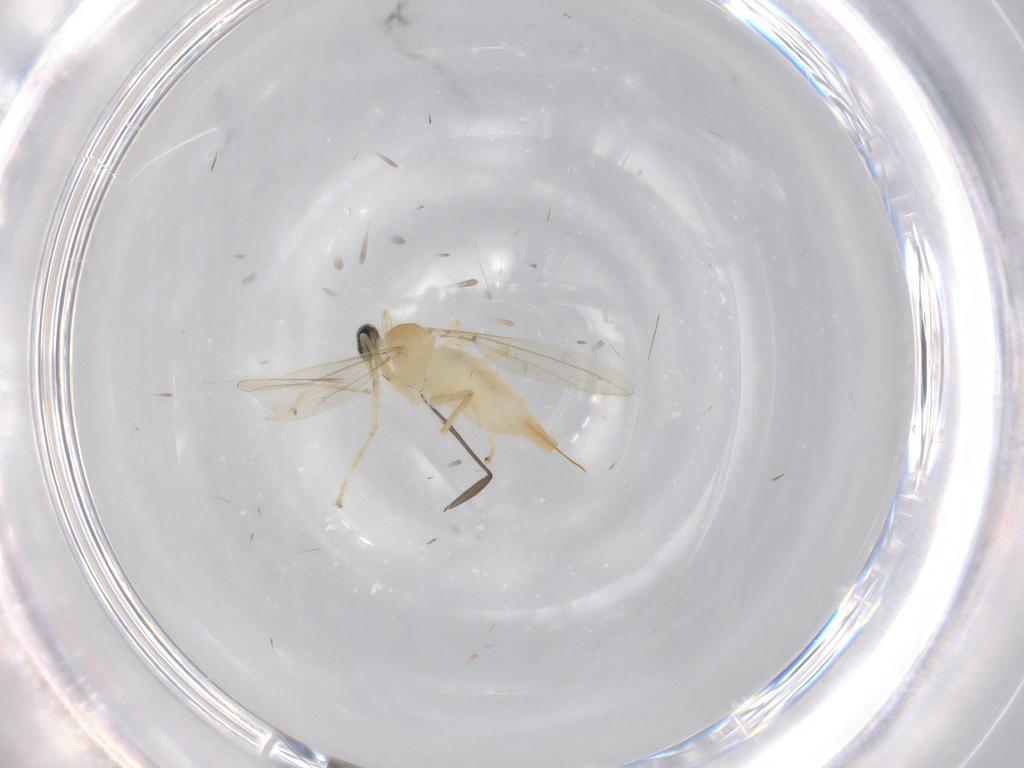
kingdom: Animalia
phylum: Arthropoda
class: Insecta
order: Diptera
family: Cecidomyiidae
